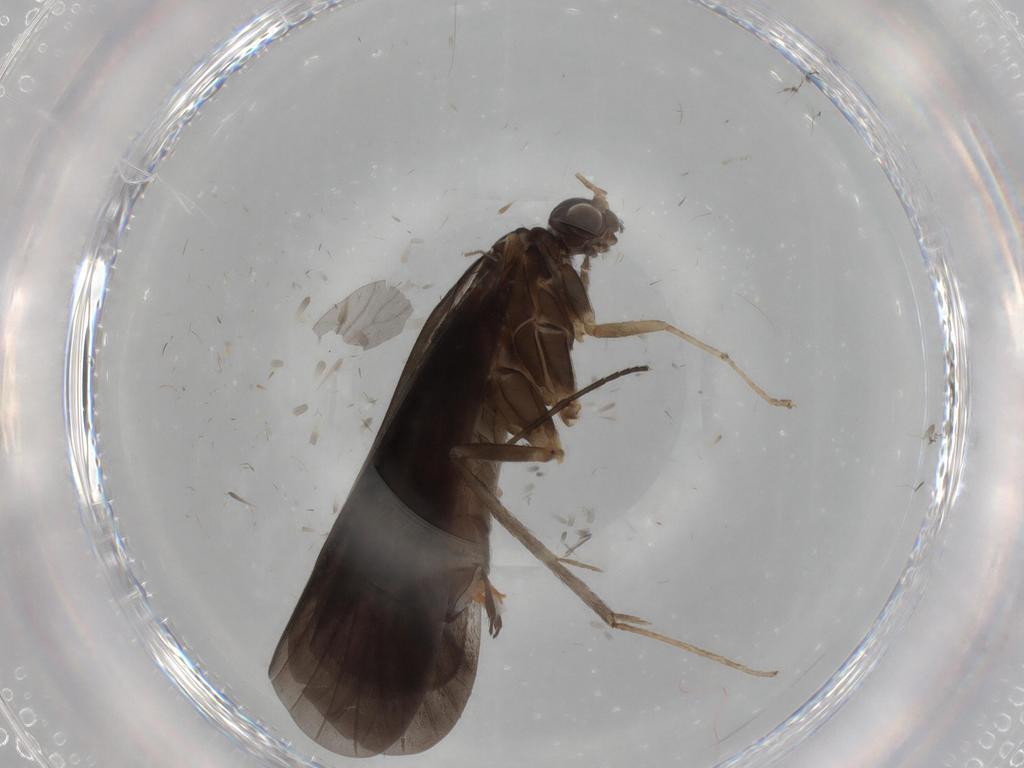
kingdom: Animalia
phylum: Arthropoda
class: Insecta
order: Trichoptera
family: Hydropsychidae
